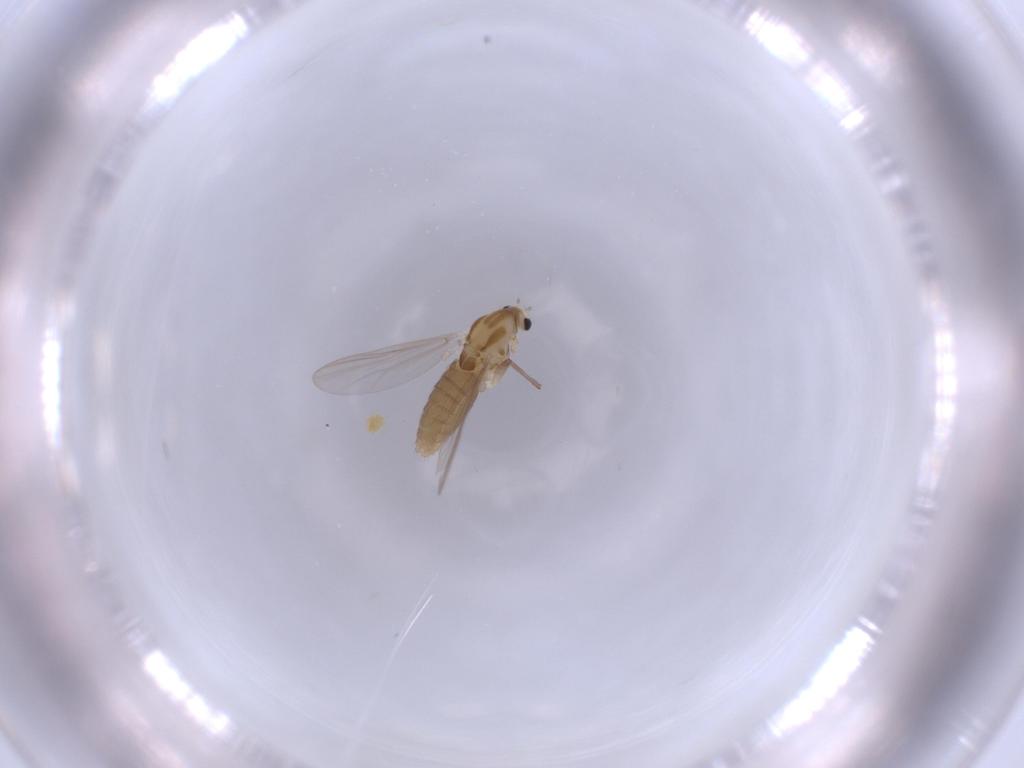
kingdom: Animalia
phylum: Arthropoda
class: Insecta
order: Diptera
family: Chironomidae
